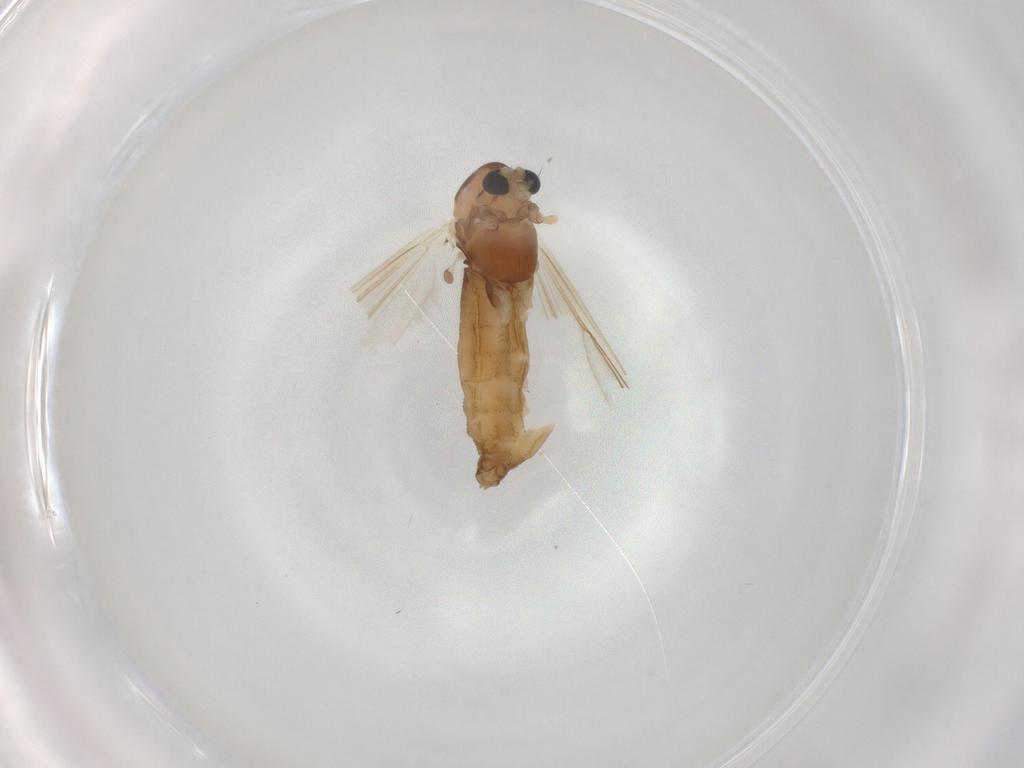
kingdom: Animalia
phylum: Arthropoda
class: Insecta
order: Diptera
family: Chironomidae
